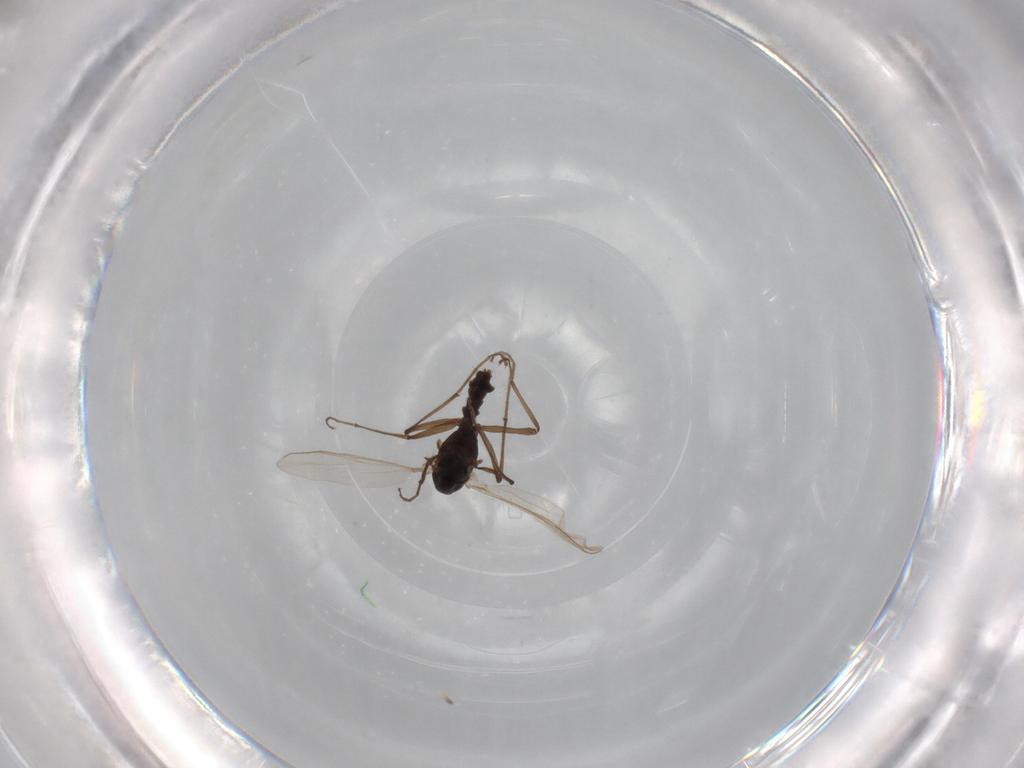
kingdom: Animalia
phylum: Arthropoda
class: Insecta
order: Diptera
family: Chironomidae
